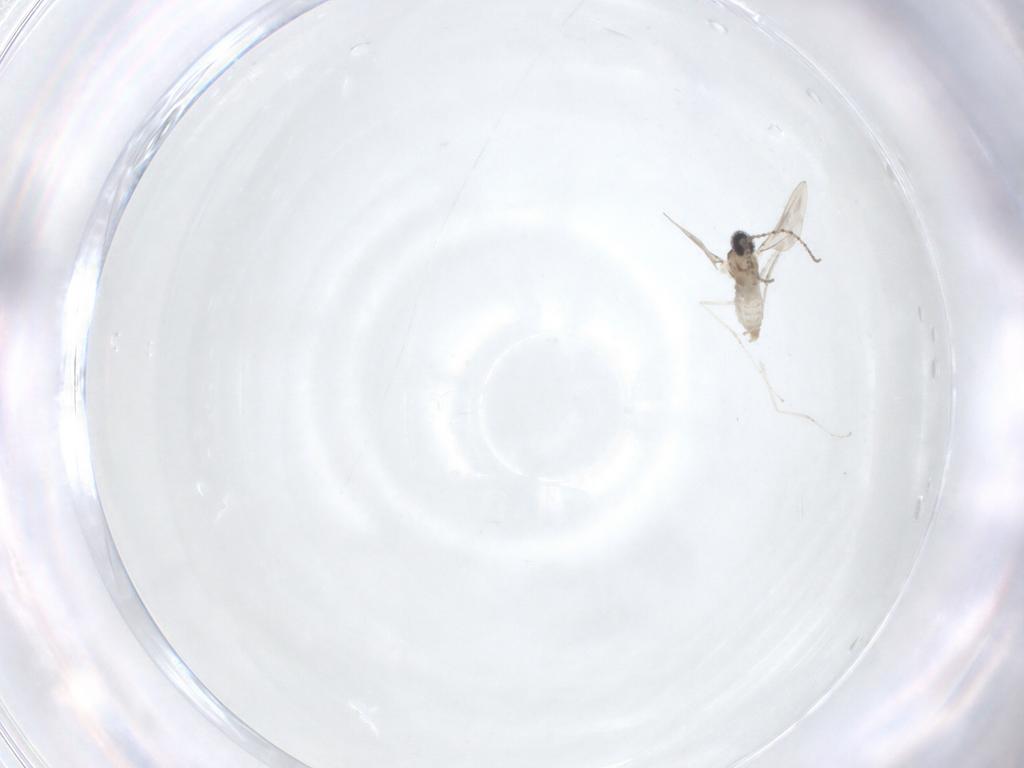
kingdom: Animalia
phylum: Arthropoda
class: Insecta
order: Diptera
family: Cecidomyiidae
